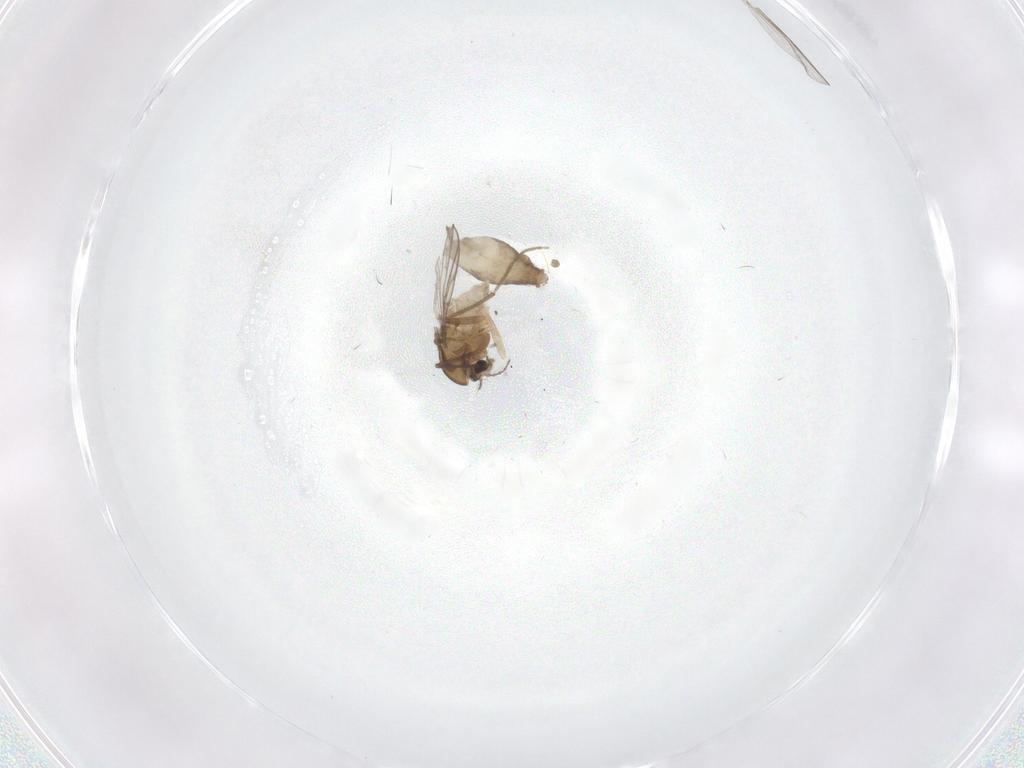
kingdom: Animalia
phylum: Arthropoda
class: Insecta
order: Diptera
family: Chironomidae
